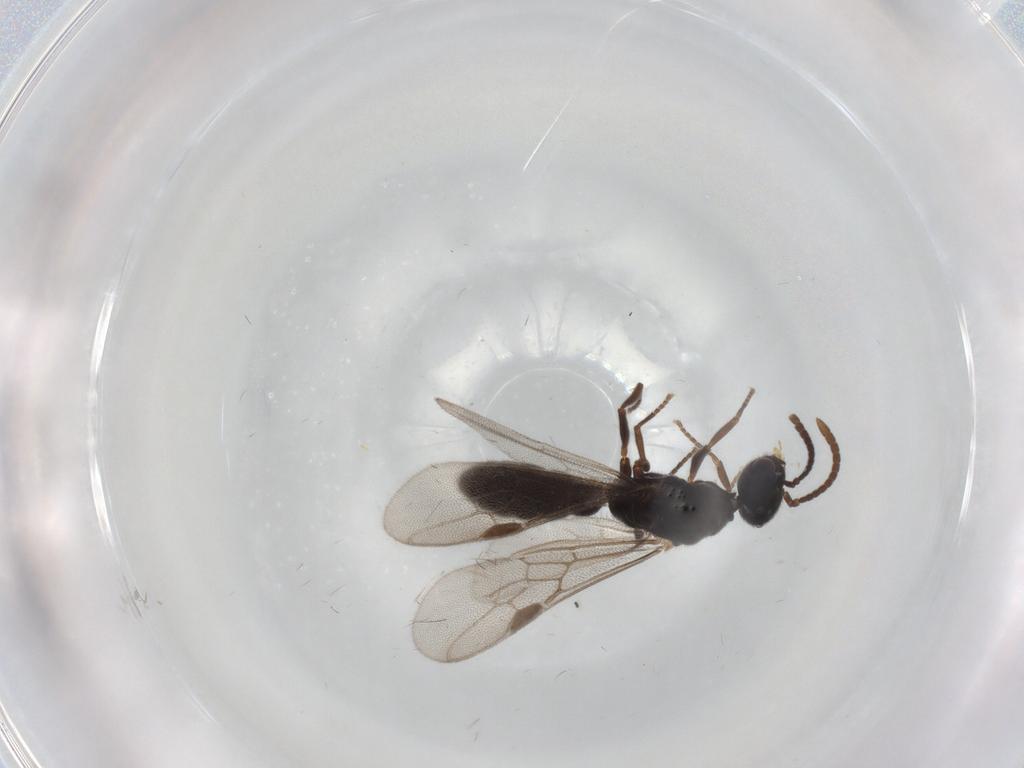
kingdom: Animalia
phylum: Arthropoda
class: Insecta
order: Hymenoptera
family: Formicidae
